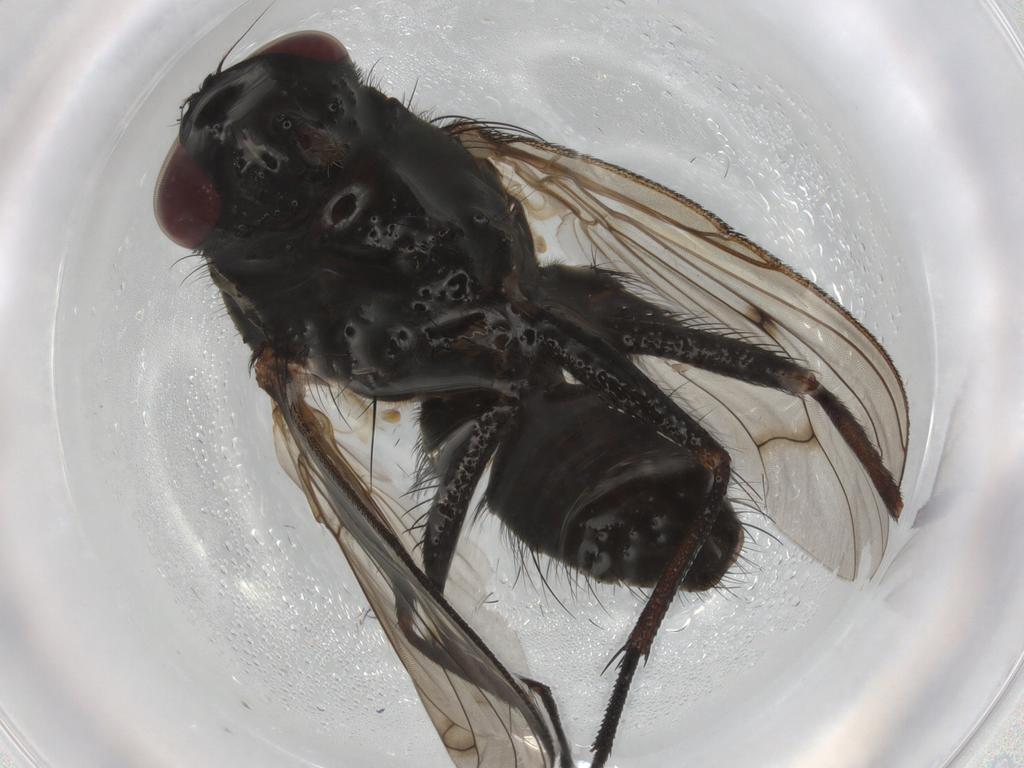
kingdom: Animalia
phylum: Arthropoda
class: Insecta
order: Diptera
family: Muscidae
